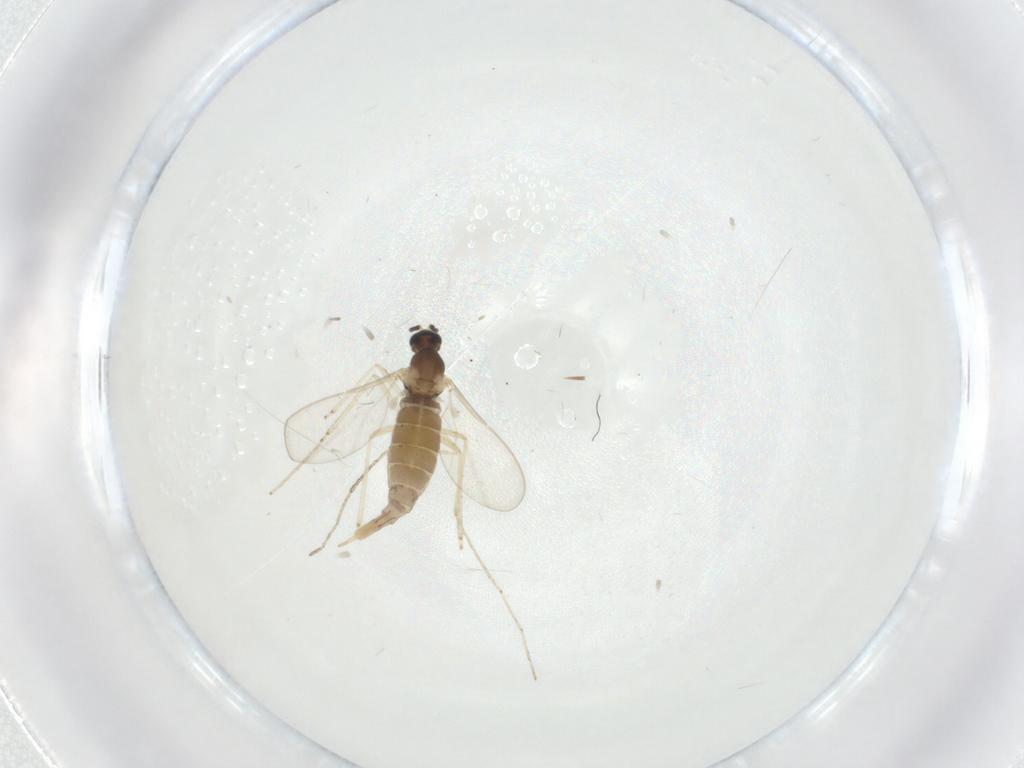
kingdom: Animalia
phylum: Arthropoda
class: Insecta
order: Diptera
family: Cecidomyiidae
